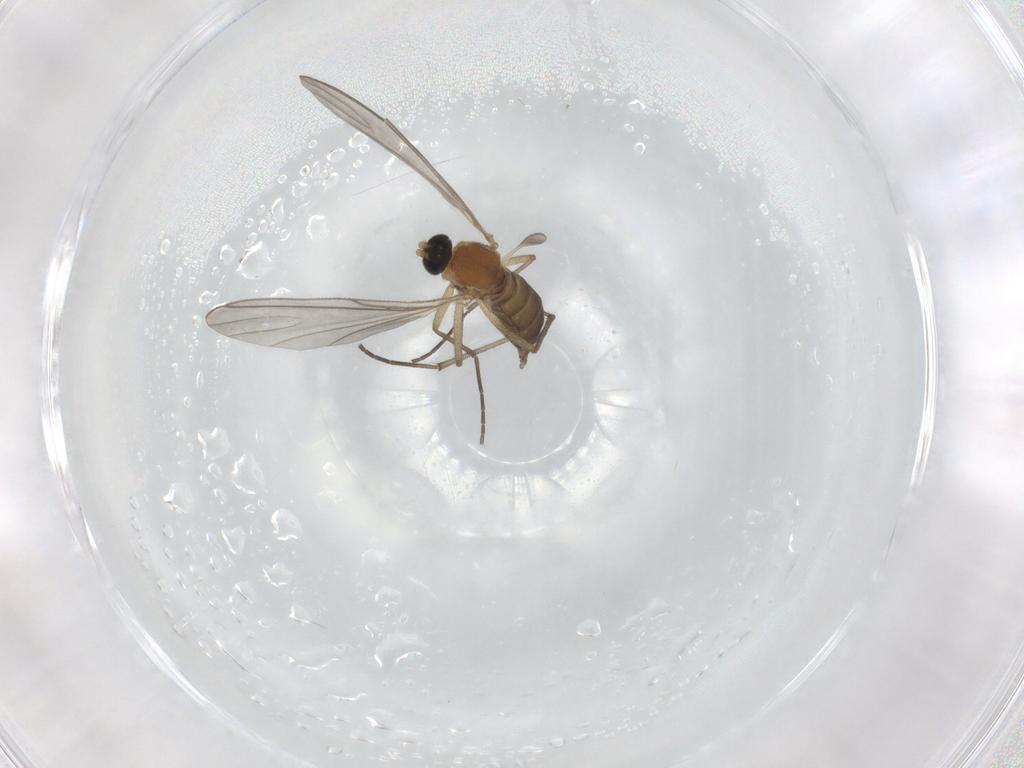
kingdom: Animalia
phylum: Arthropoda
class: Insecta
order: Diptera
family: Sciaridae
